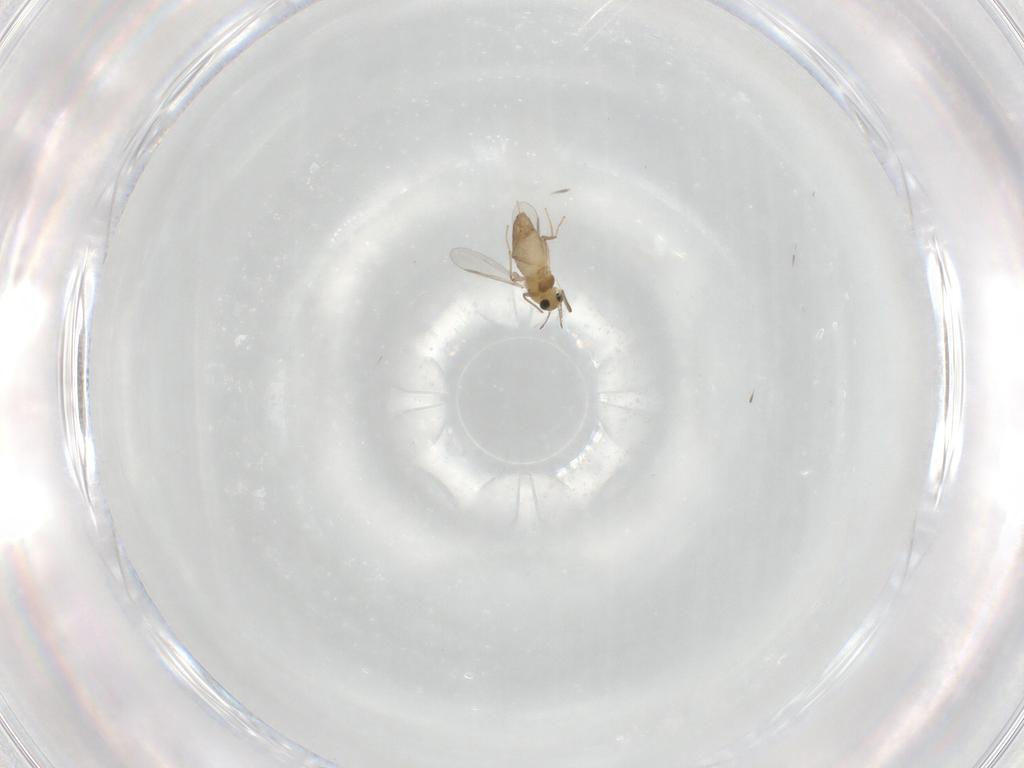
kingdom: Animalia
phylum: Arthropoda
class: Insecta
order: Diptera
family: Chironomidae
